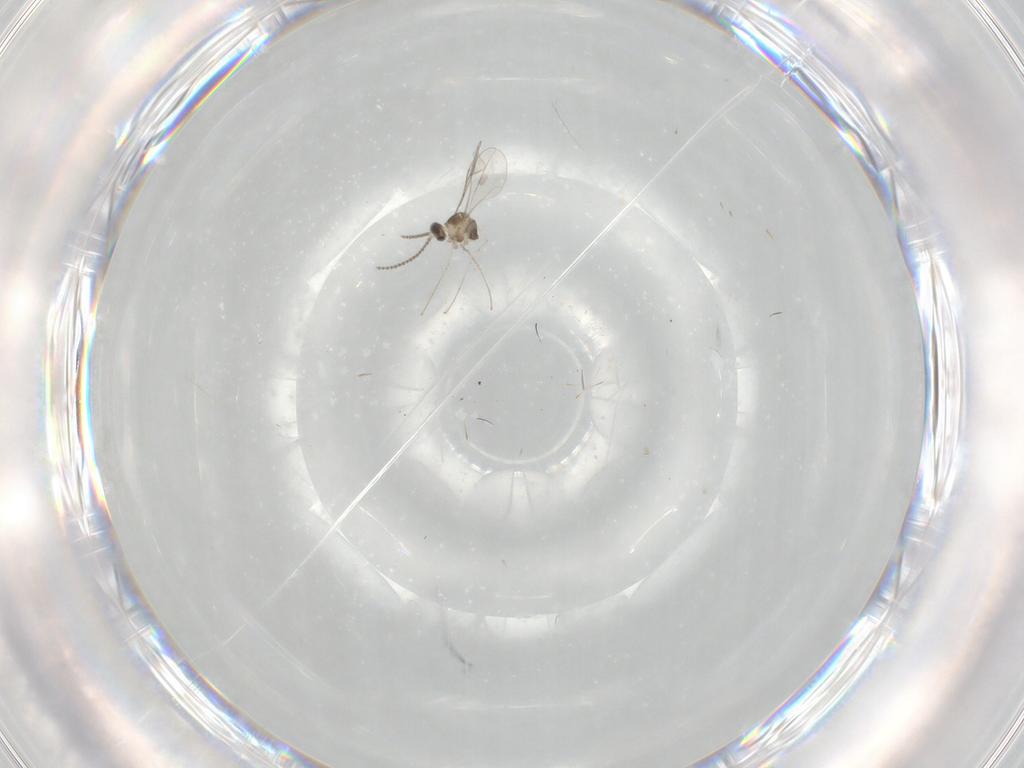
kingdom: Animalia
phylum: Arthropoda
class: Insecta
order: Diptera
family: Cecidomyiidae
